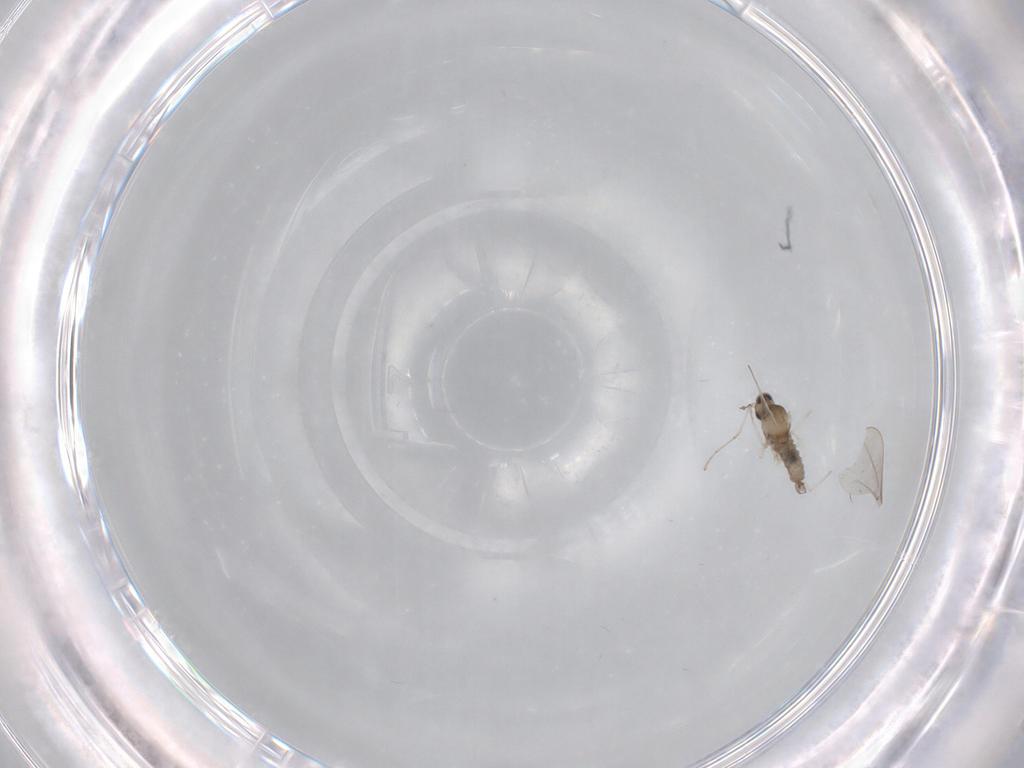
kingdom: Animalia
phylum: Arthropoda
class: Insecta
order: Diptera
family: Cecidomyiidae
